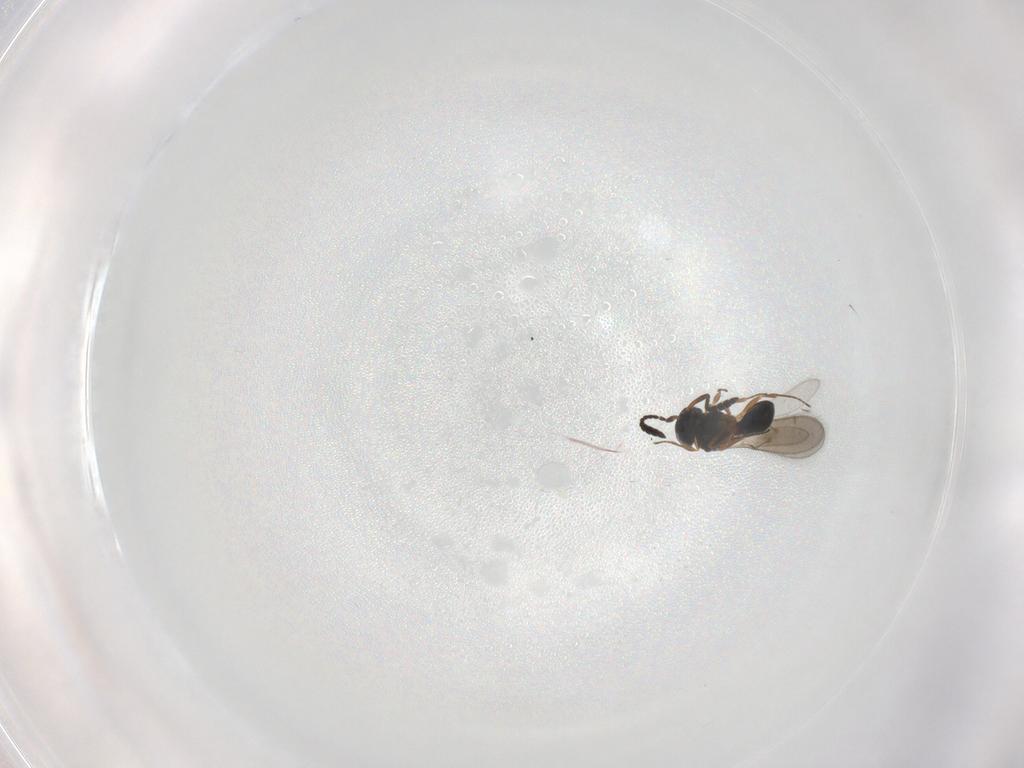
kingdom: Animalia
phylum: Arthropoda
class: Insecta
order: Hymenoptera
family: Scelionidae
